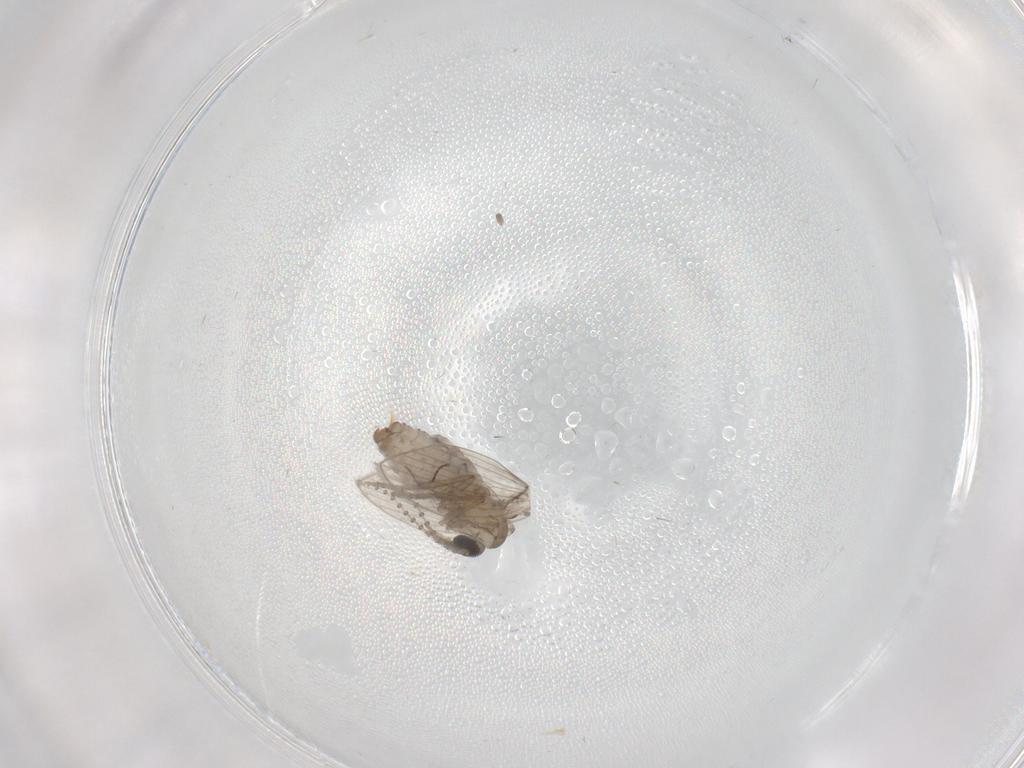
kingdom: Animalia
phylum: Arthropoda
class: Insecta
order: Diptera
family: Psychodidae
